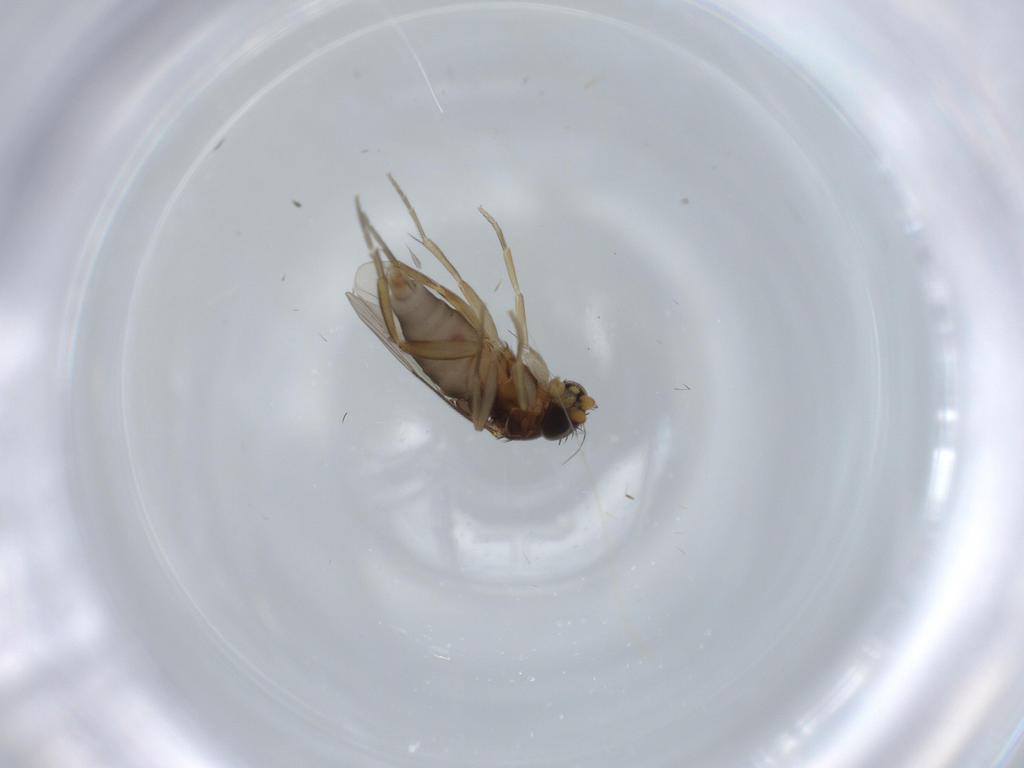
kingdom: Animalia
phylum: Arthropoda
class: Insecta
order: Diptera
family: Phoridae
